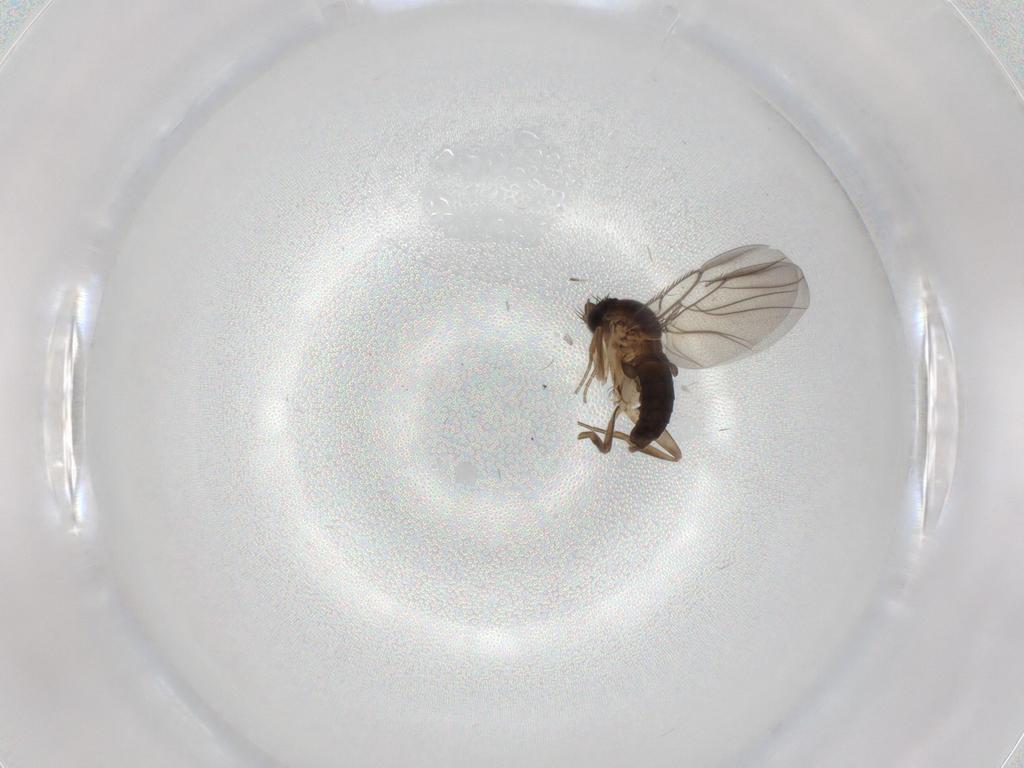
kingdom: Animalia
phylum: Arthropoda
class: Insecta
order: Diptera
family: Phoridae
